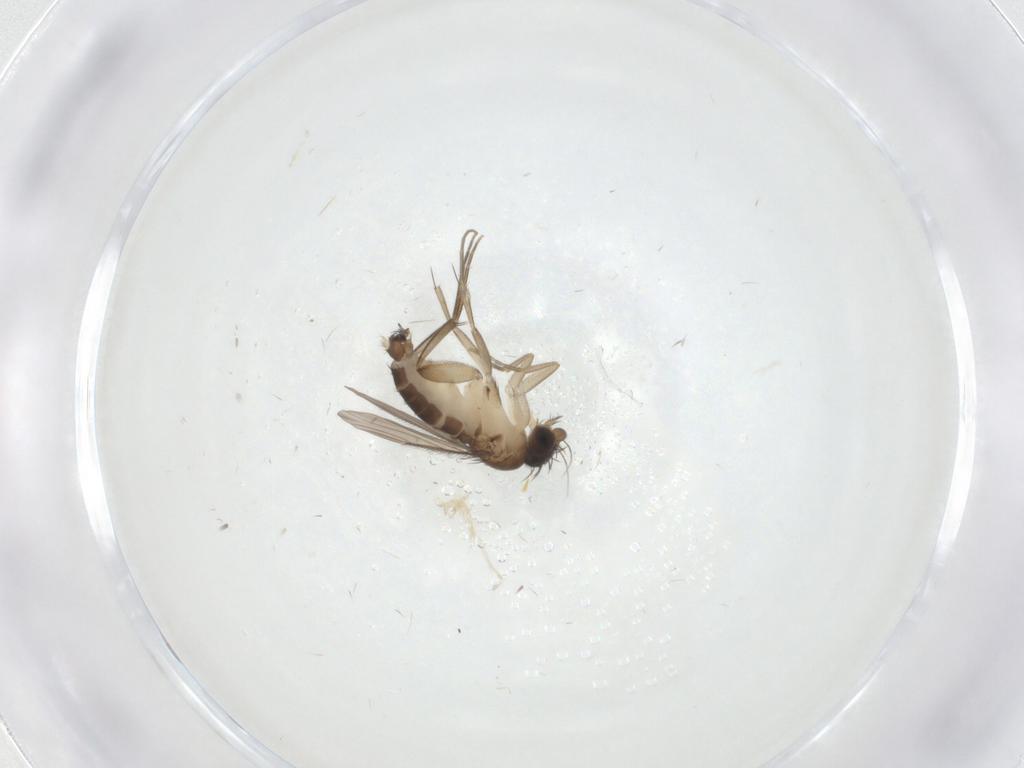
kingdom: Animalia
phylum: Arthropoda
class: Insecta
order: Diptera
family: Phoridae
